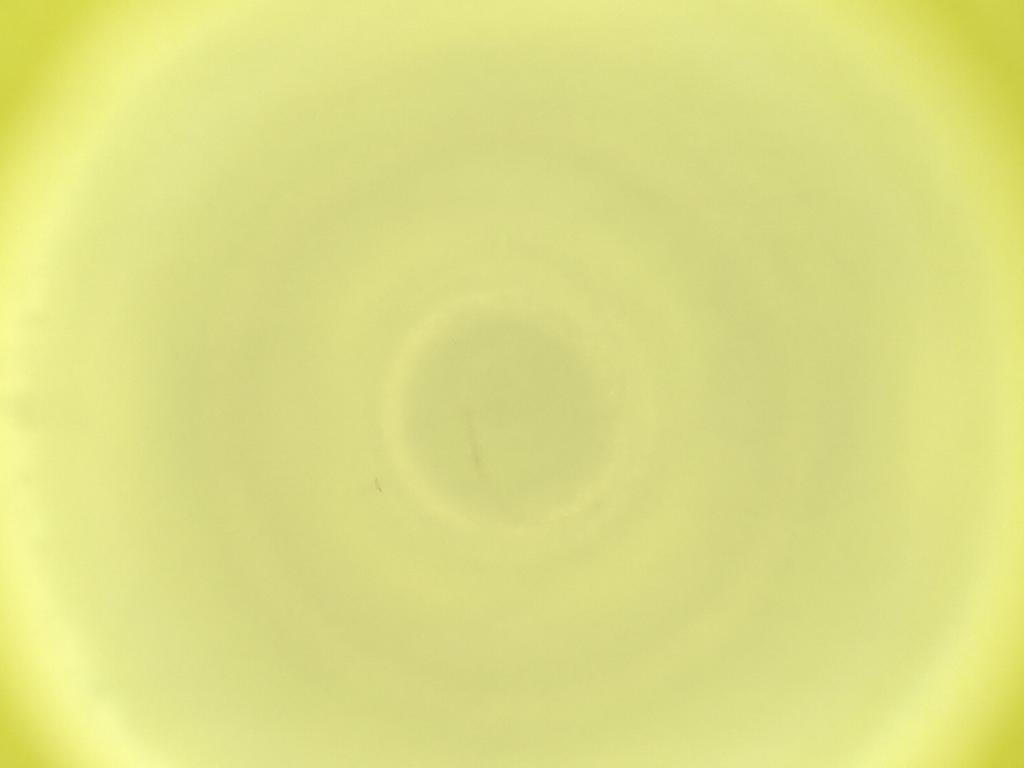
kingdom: Animalia
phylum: Arthropoda
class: Insecta
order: Diptera
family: Cecidomyiidae
